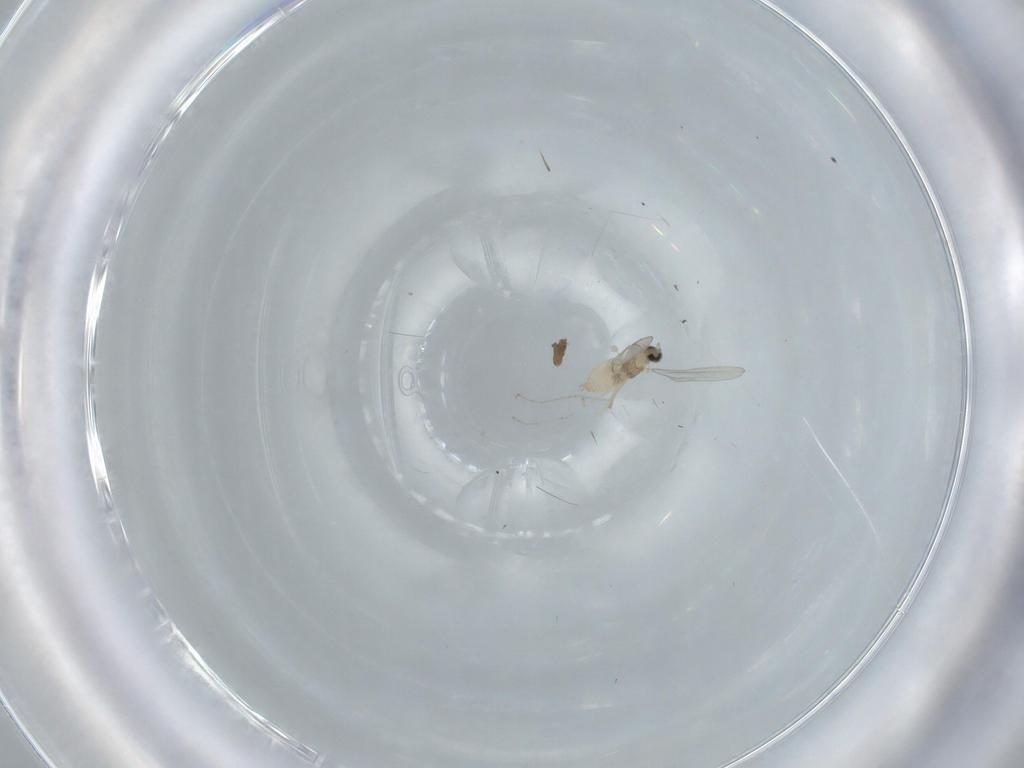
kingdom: Animalia
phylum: Arthropoda
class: Insecta
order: Diptera
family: Cecidomyiidae
